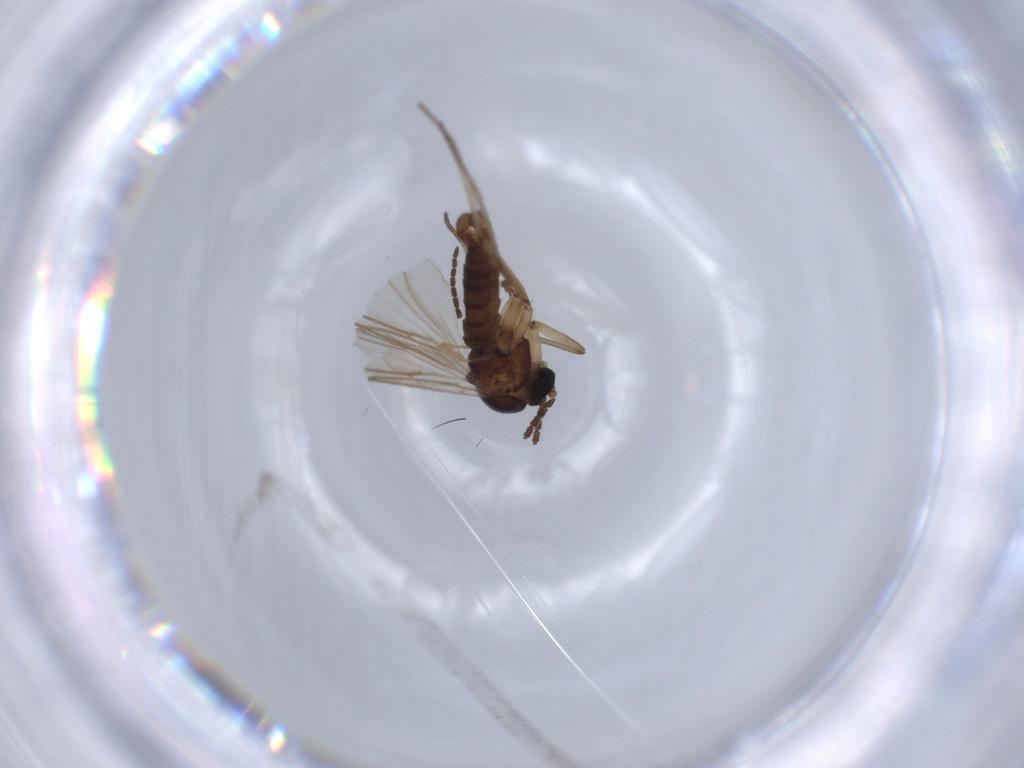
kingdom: Animalia
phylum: Arthropoda
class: Insecta
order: Diptera
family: Sciaridae
